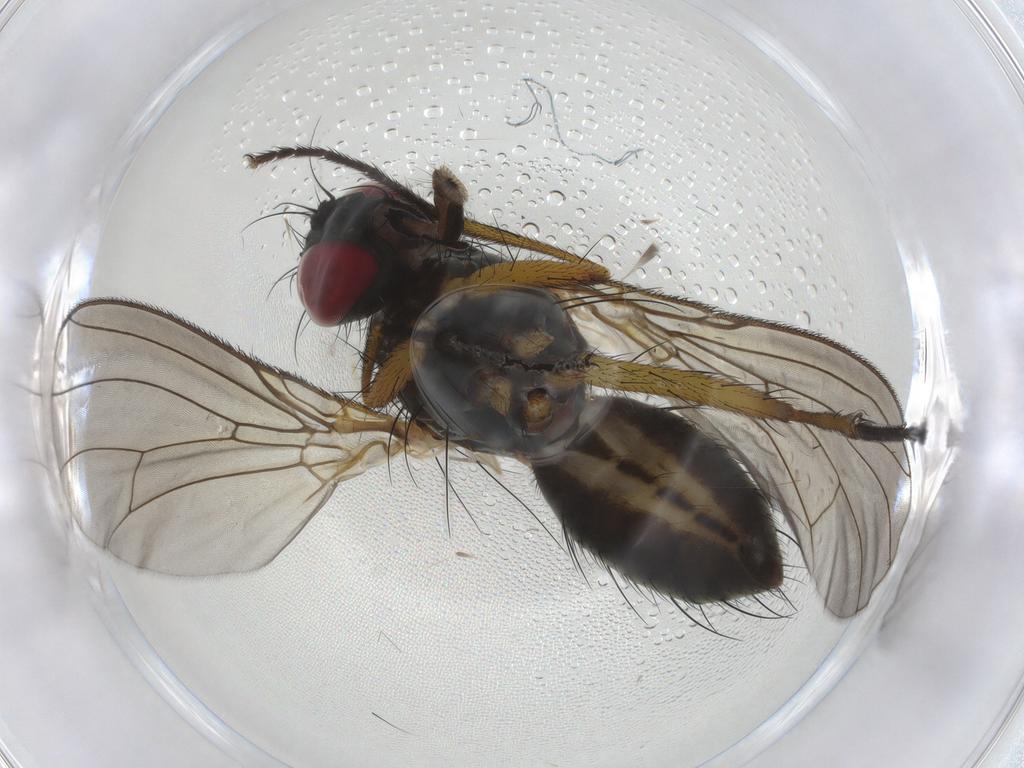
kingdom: Animalia
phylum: Arthropoda
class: Insecta
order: Diptera
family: Muscidae
